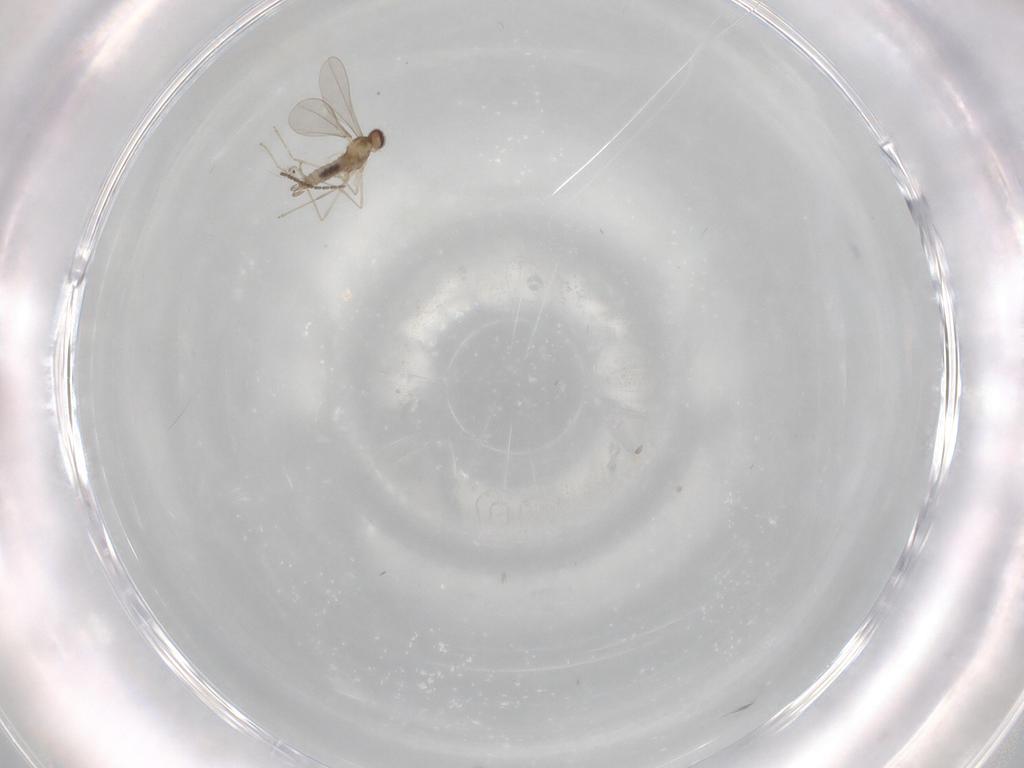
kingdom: Animalia
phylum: Arthropoda
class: Insecta
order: Diptera
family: Cecidomyiidae
